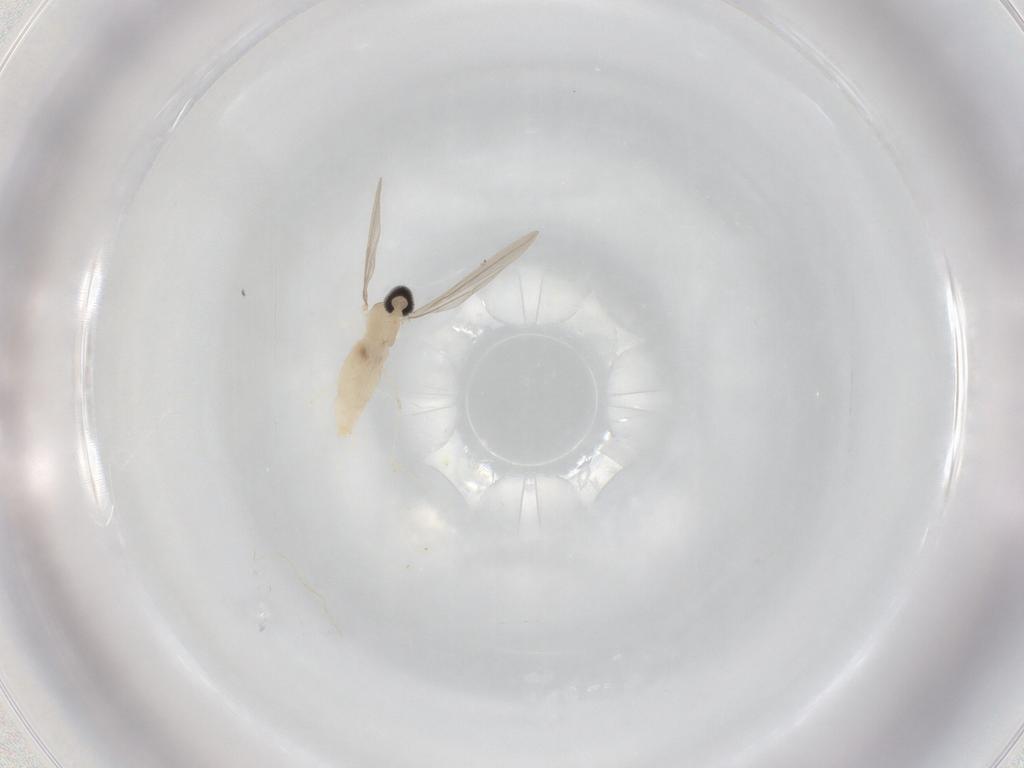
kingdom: Animalia
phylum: Arthropoda
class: Insecta
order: Diptera
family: Cecidomyiidae
